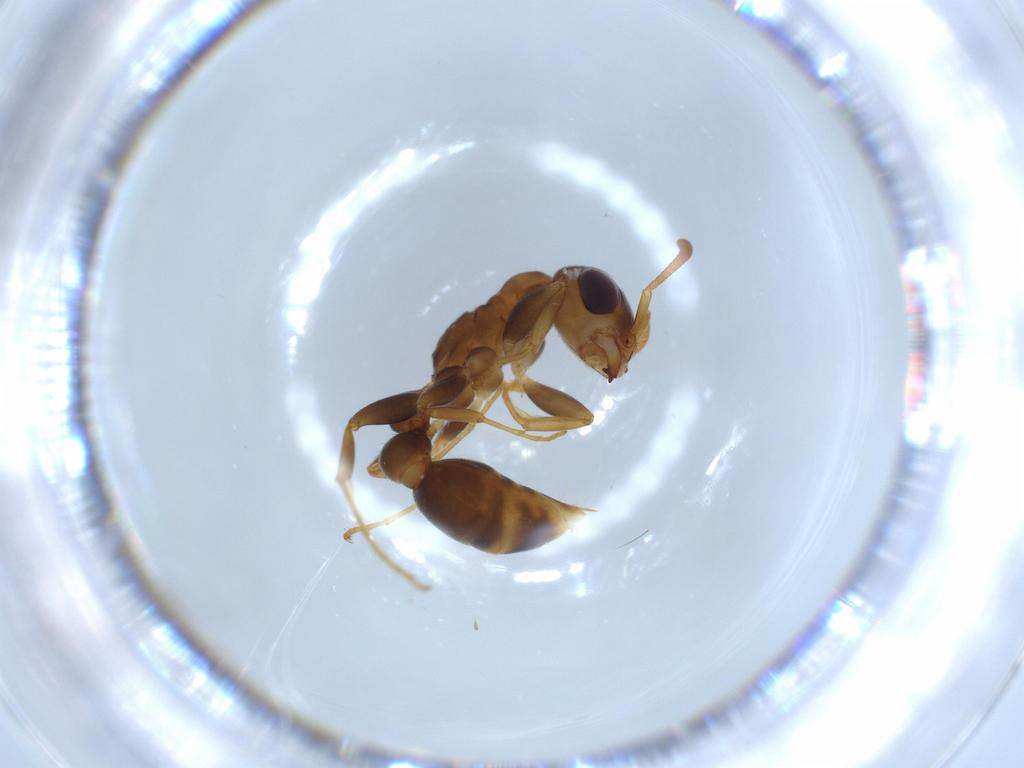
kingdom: Animalia
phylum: Arthropoda
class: Insecta
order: Hymenoptera
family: Formicidae
